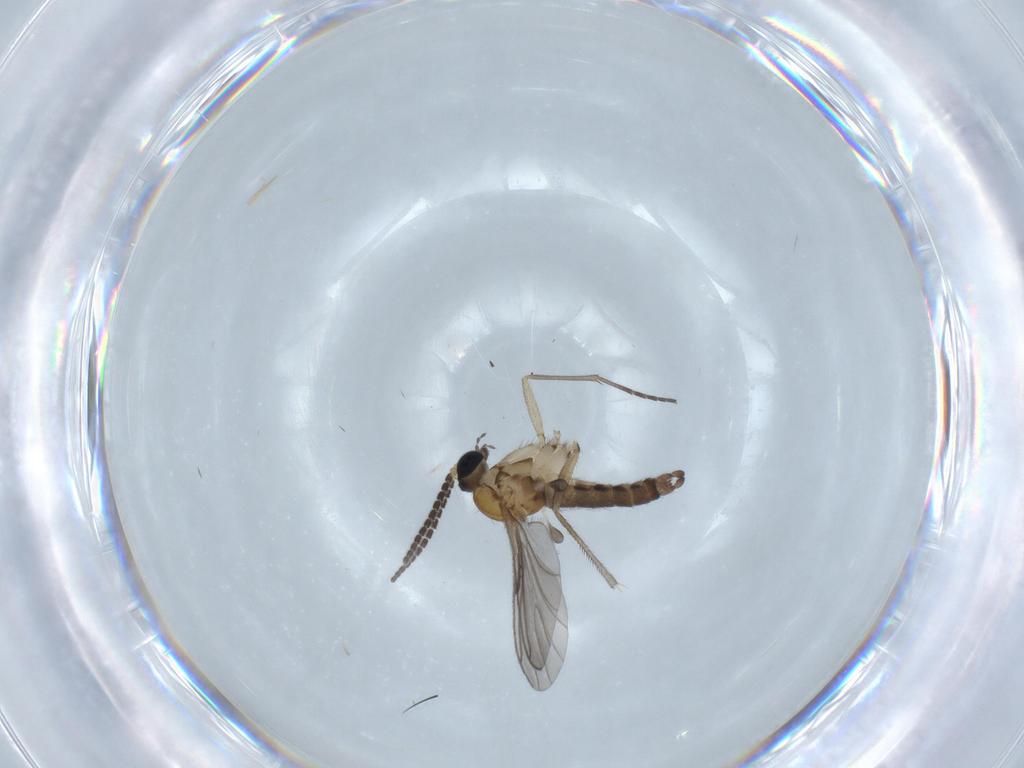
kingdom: Animalia
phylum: Arthropoda
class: Insecta
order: Diptera
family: Sciaridae
